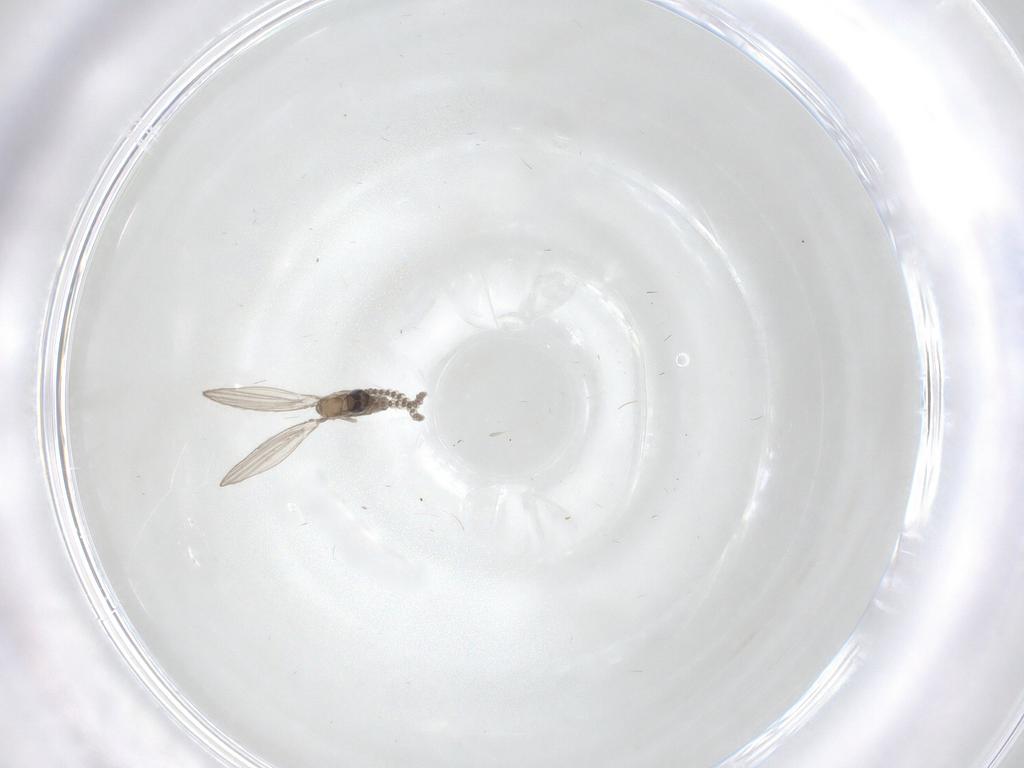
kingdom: Animalia
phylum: Arthropoda
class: Insecta
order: Diptera
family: Psychodidae
